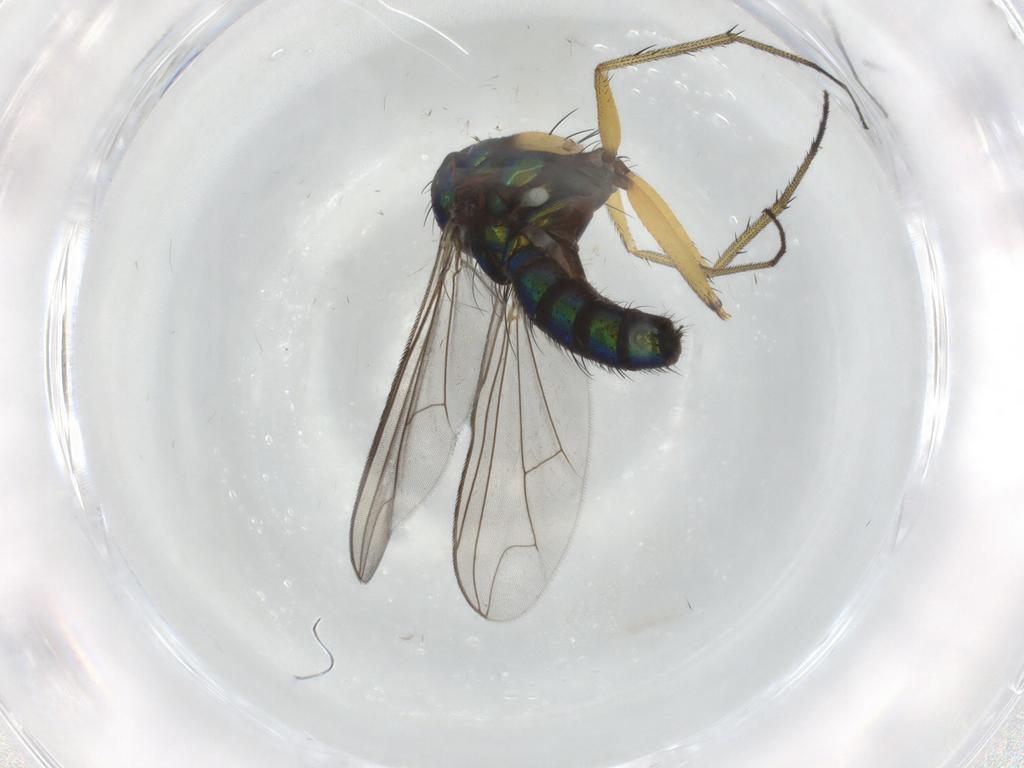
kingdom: Animalia
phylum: Arthropoda
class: Insecta
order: Diptera
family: Dolichopodidae
